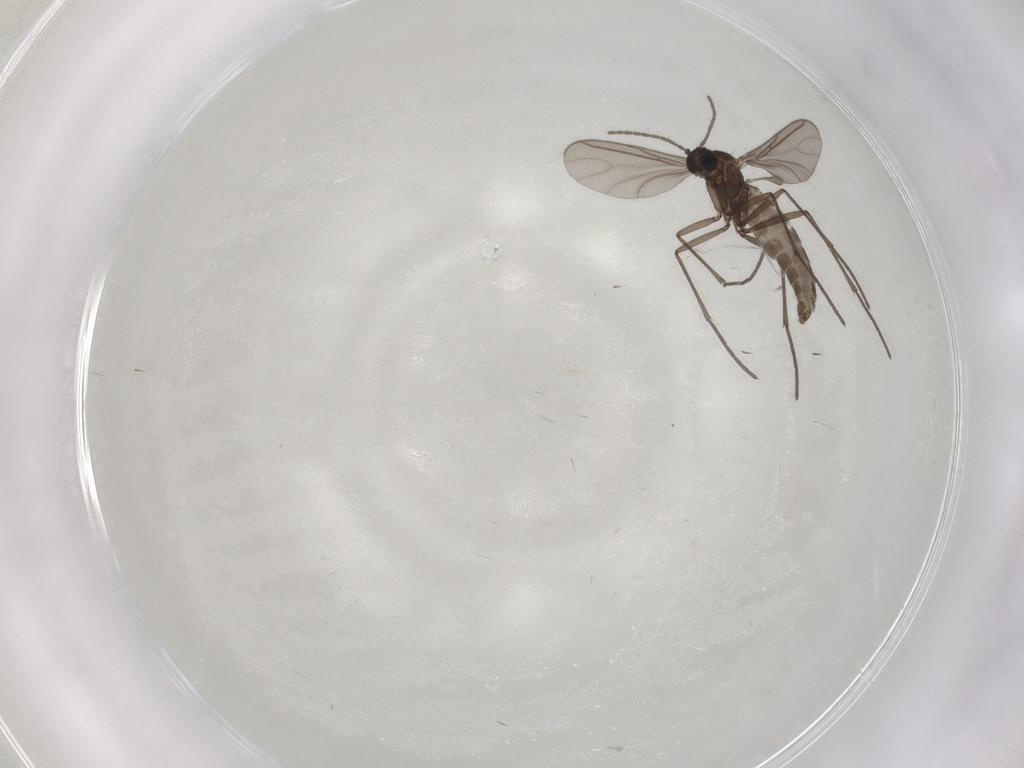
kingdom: Animalia
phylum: Arthropoda
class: Insecta
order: Diptera
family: Sciaridae
